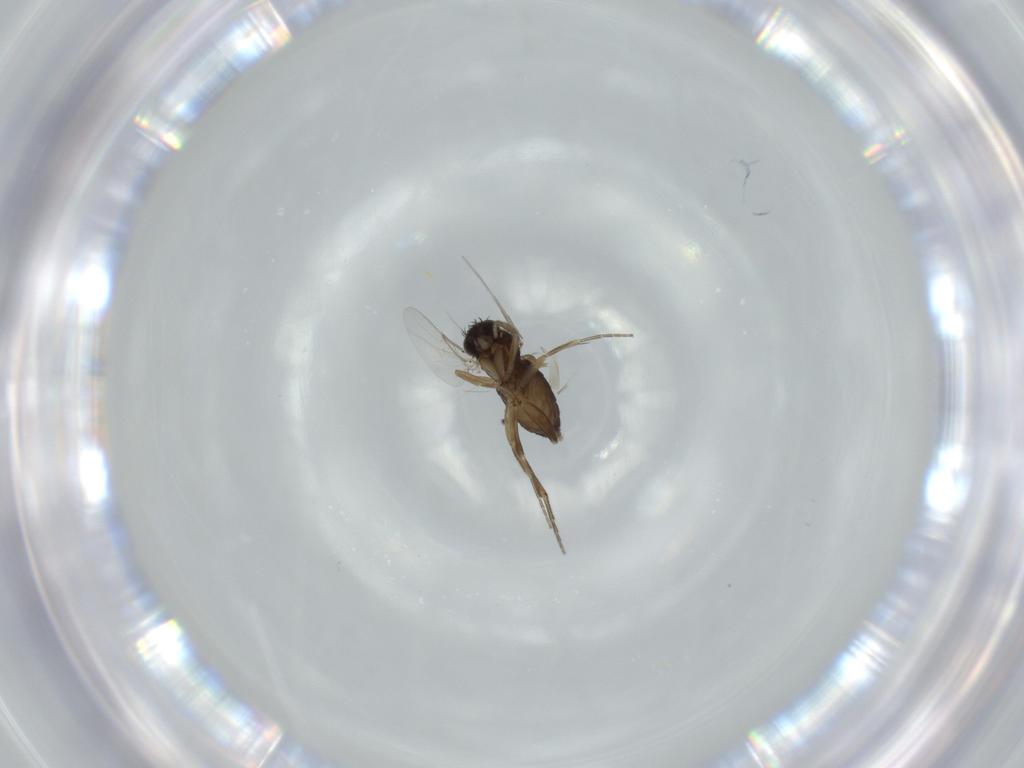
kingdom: Animalia
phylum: Arthropoda
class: Insecta
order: Diptera
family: Phoridae
